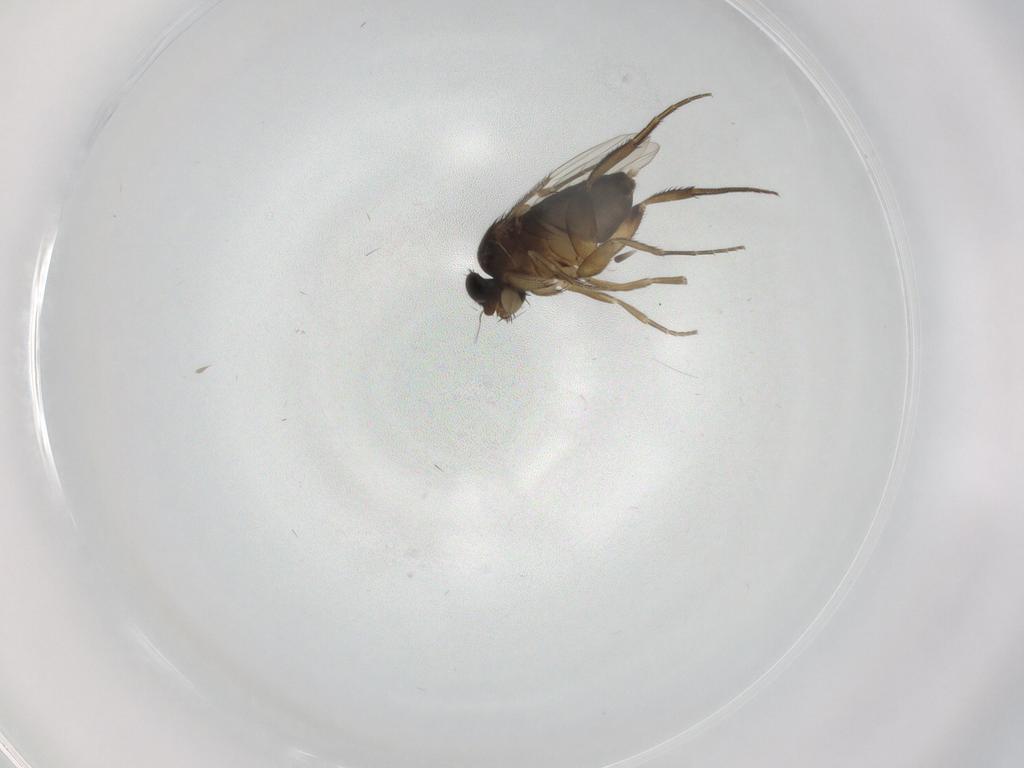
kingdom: Animalia
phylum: Arthropoda
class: Insecta
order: Diptera
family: Phoridae
